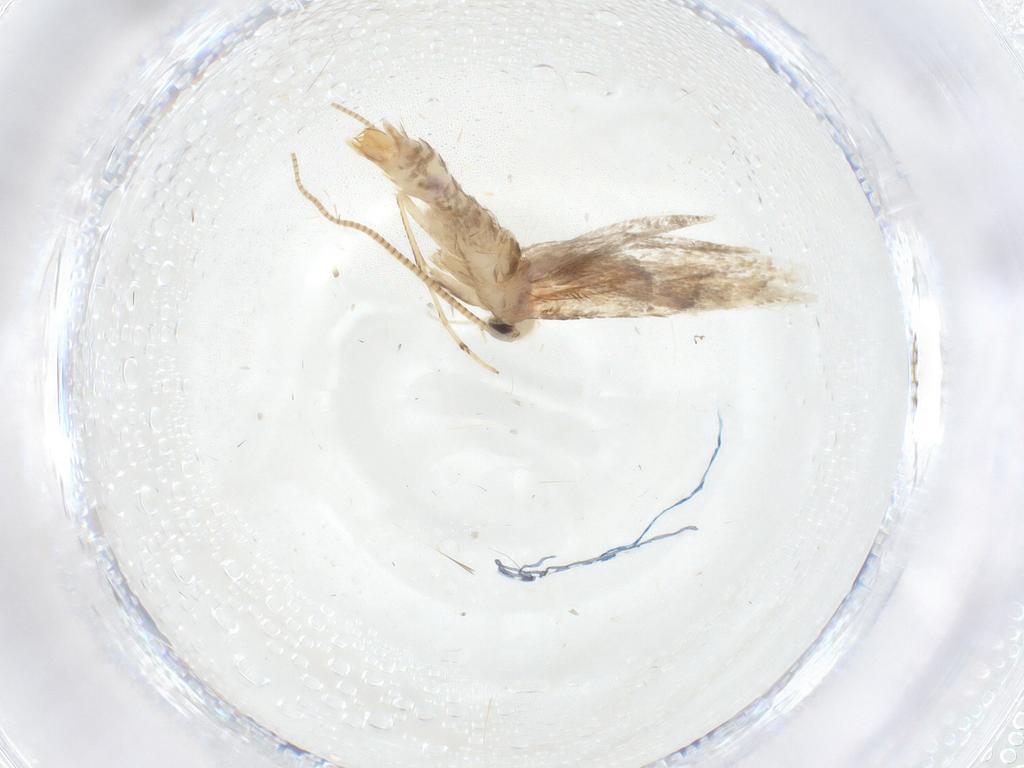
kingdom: Animalia
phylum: Arthropoda
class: Insecta
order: Lepidoptera
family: Gracillariidae
